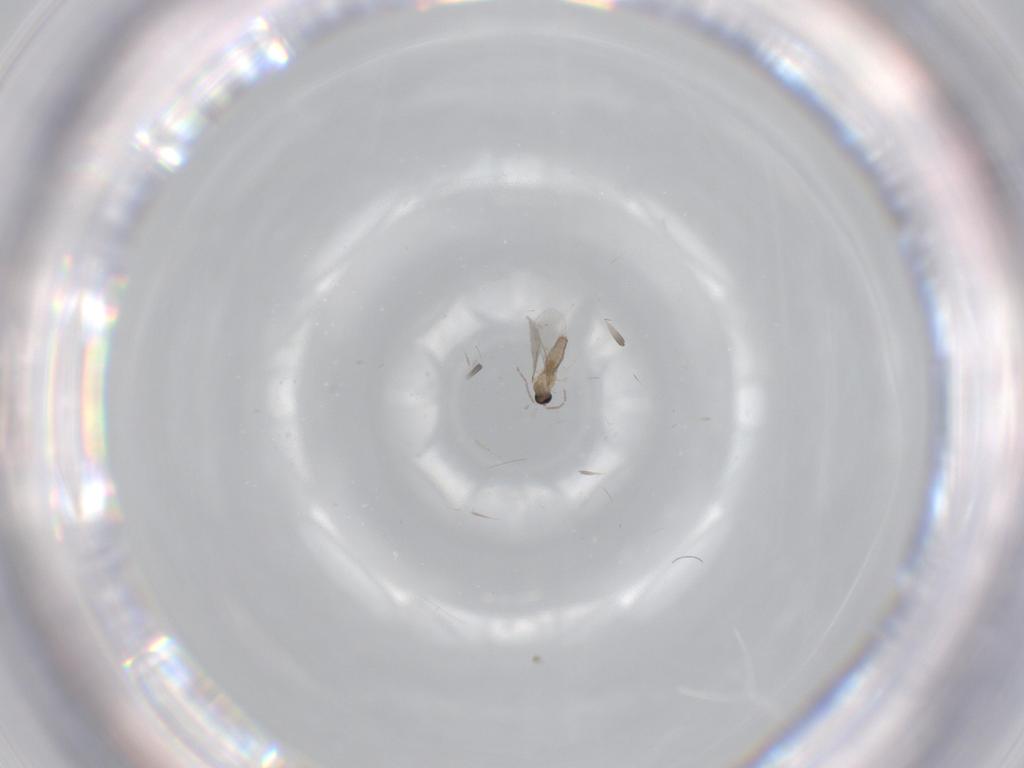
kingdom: Animalia
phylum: Arthropoda
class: Insecta
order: Diptera
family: Cecidomyiidae
